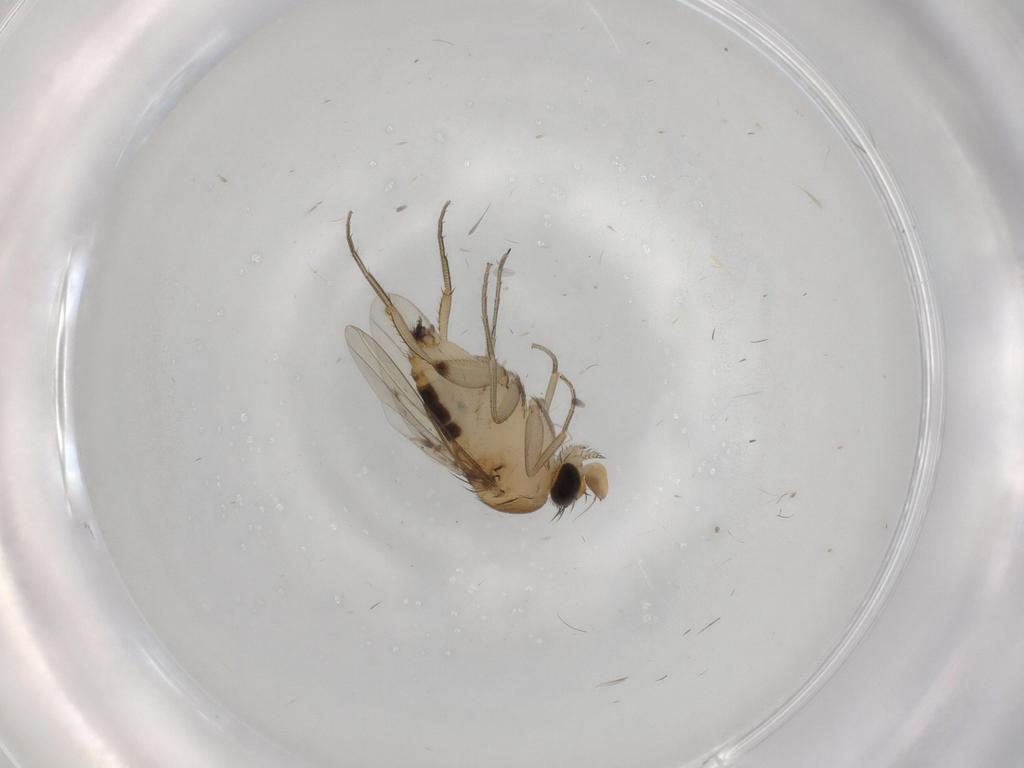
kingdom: Animalia
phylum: Arthropoda
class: Insecta
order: Diptera
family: Phoridae
